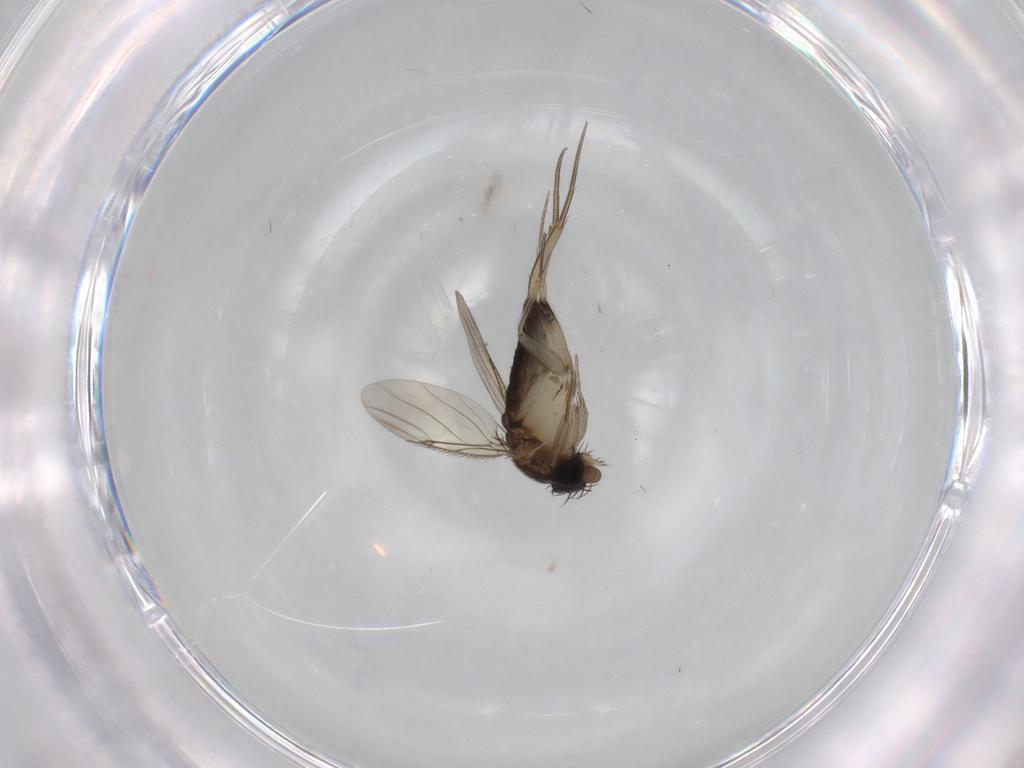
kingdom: Animalia
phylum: Arthropoda
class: Insecta
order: Diptera
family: Phoridae
